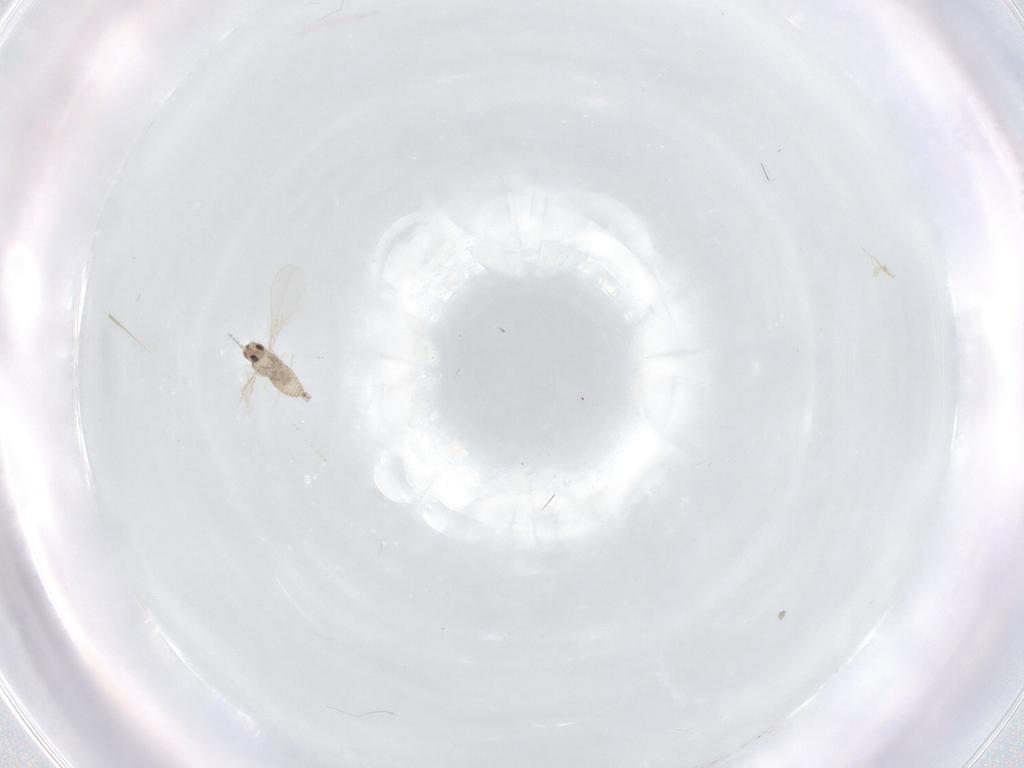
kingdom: Animalia
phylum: Arthropoda
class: Insecta
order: Diptera
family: Cecidomyiidae
